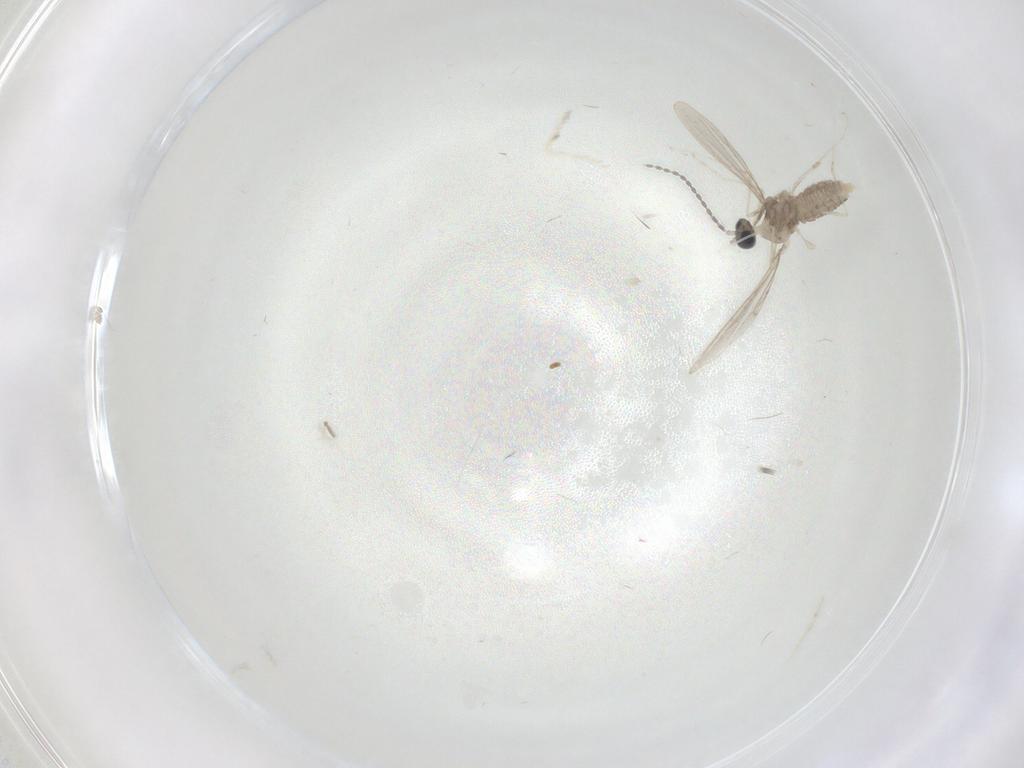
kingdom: Animalia
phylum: Arthropoda
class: Insecta
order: Diptera
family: Cecidomyiidae
